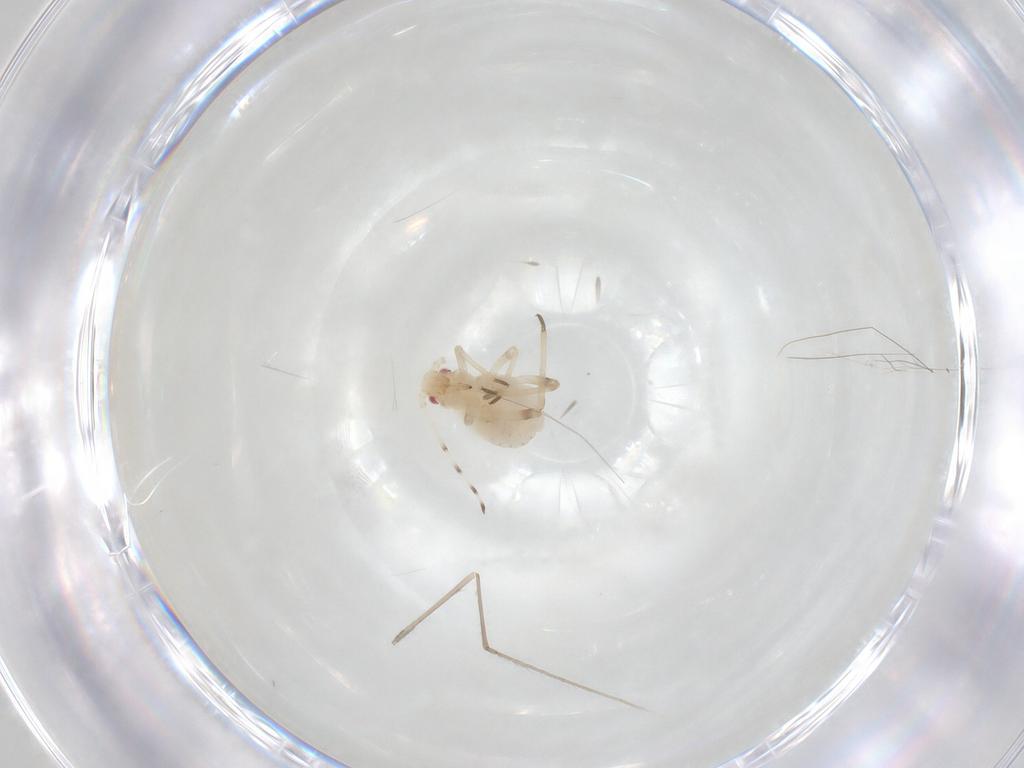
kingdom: Animalia
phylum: Arthropoda
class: Insecta
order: Hemiptera
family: Aphididae
